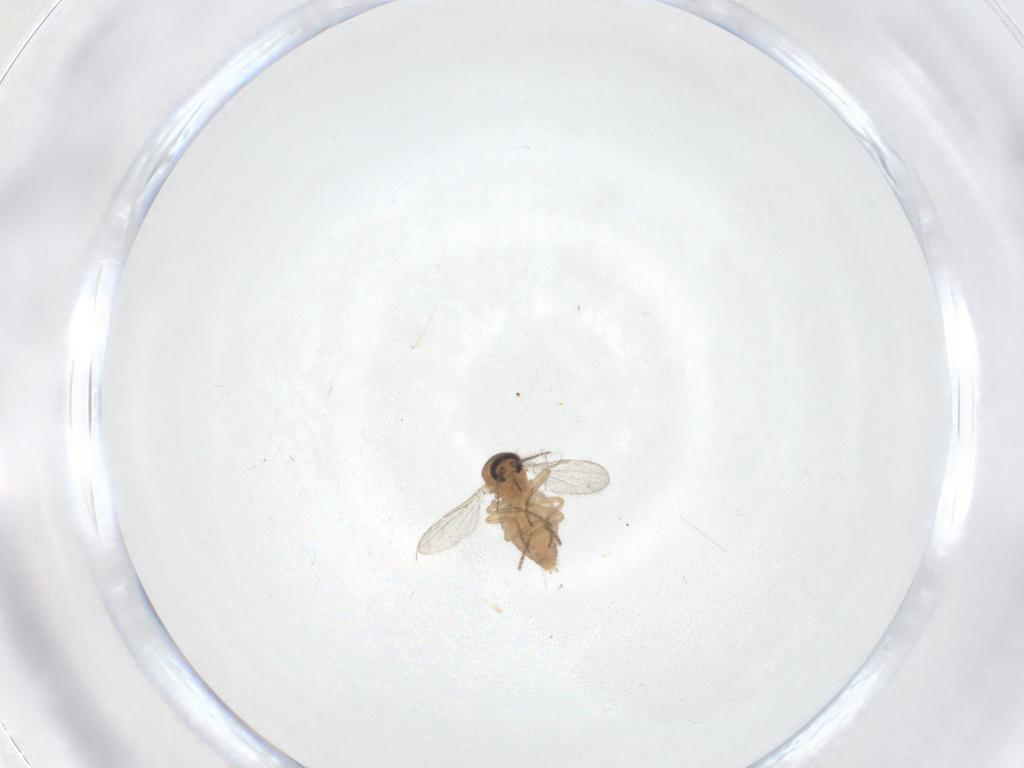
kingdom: Animalia
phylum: Arthropoda
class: Insecta
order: Diptera
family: Ceratopogonidae
